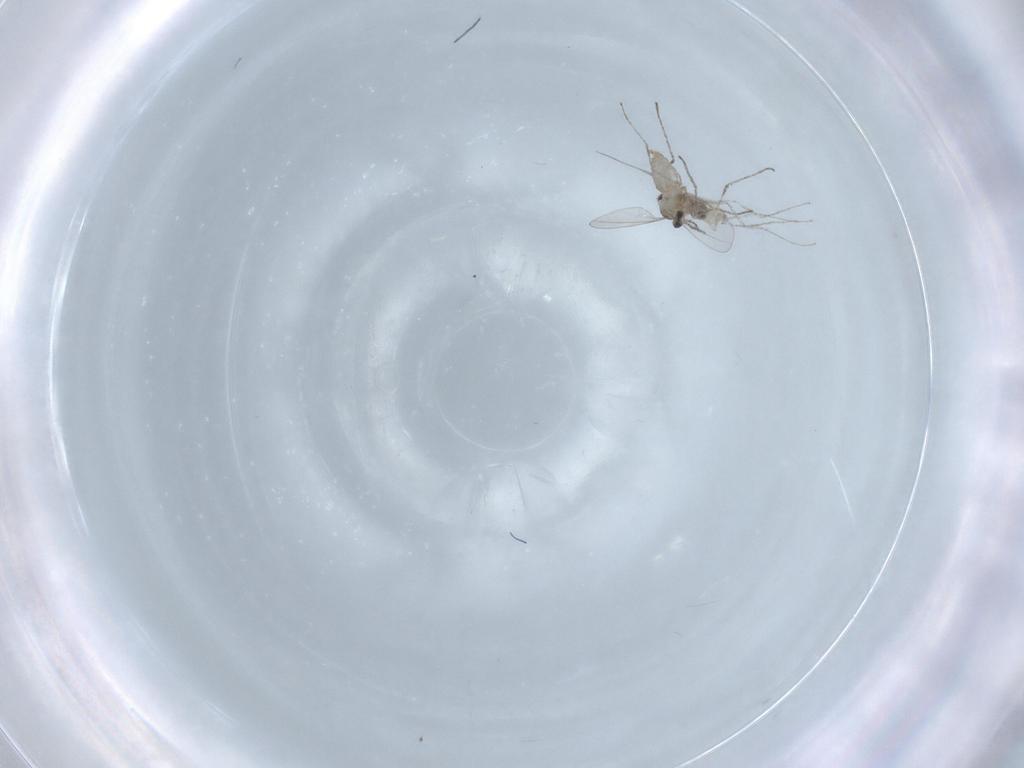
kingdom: Animalia
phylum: Arthropoda
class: Insecta
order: Diptera
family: Cecidomyiidae
